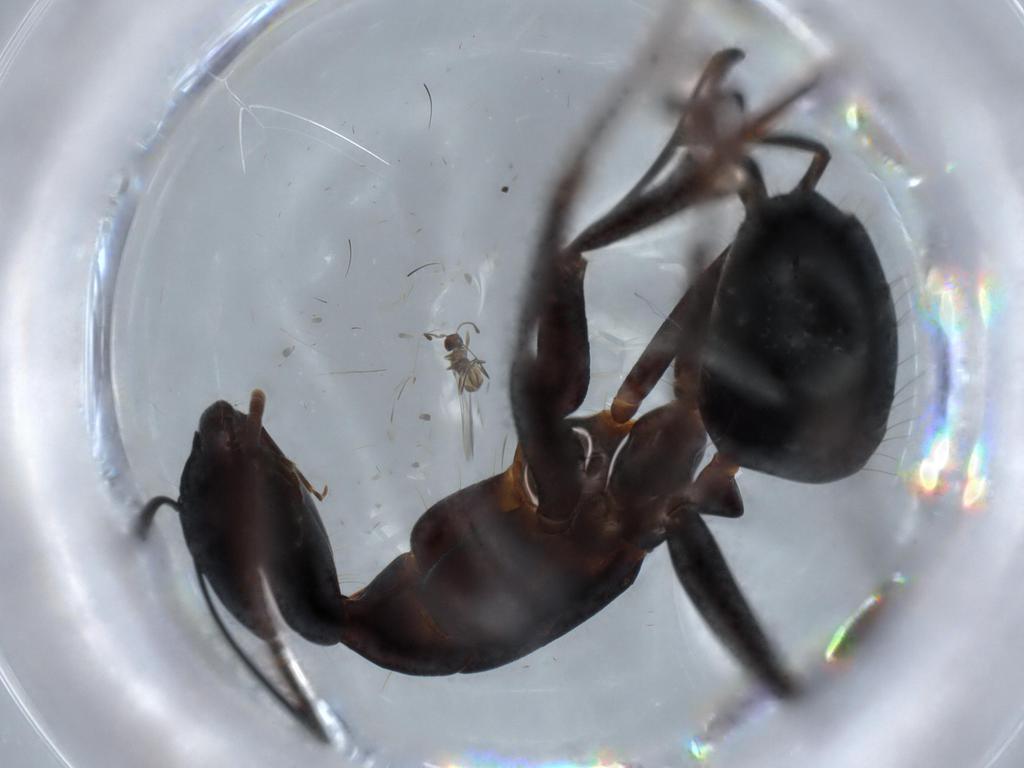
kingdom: Animalia
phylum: Arthropoda
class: Insecta
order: Hymenoptera
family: Formicidae
